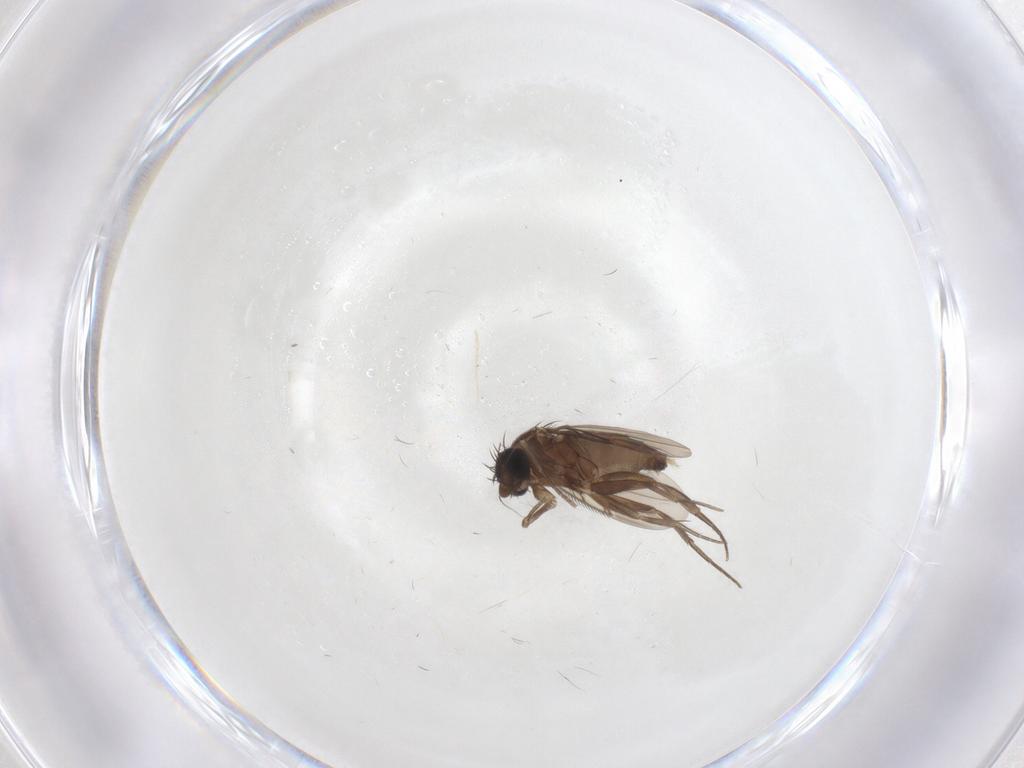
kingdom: Animalia
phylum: Arthropoda
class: Insecta
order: Diptera
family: Phoridae
